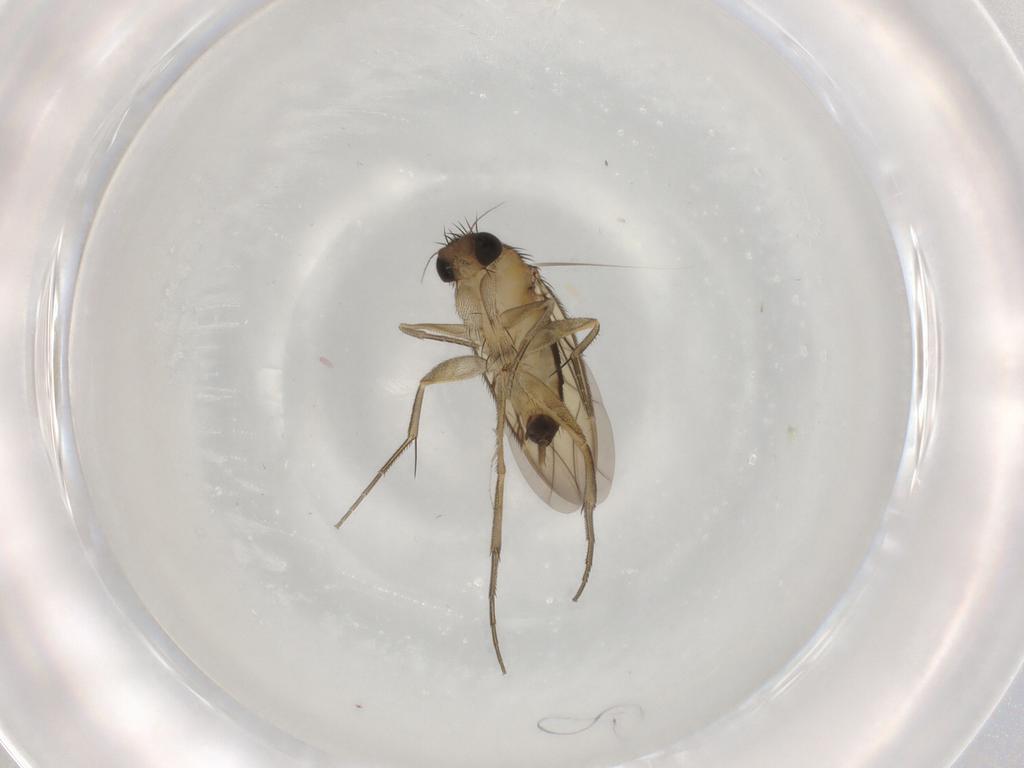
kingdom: Animalia
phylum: Arthropoda
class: Insecta
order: Diptera
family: Phoridae
